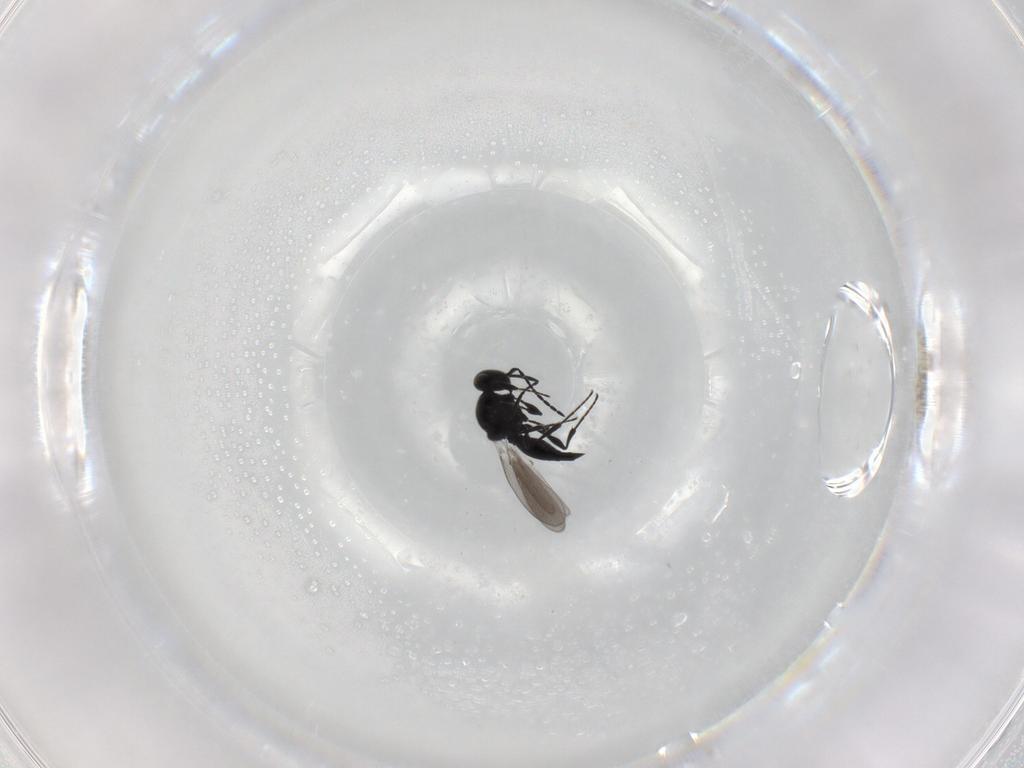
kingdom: Animalia
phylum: Arthropoda
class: Insecta
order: Diptera
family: Mythicomyiidae
